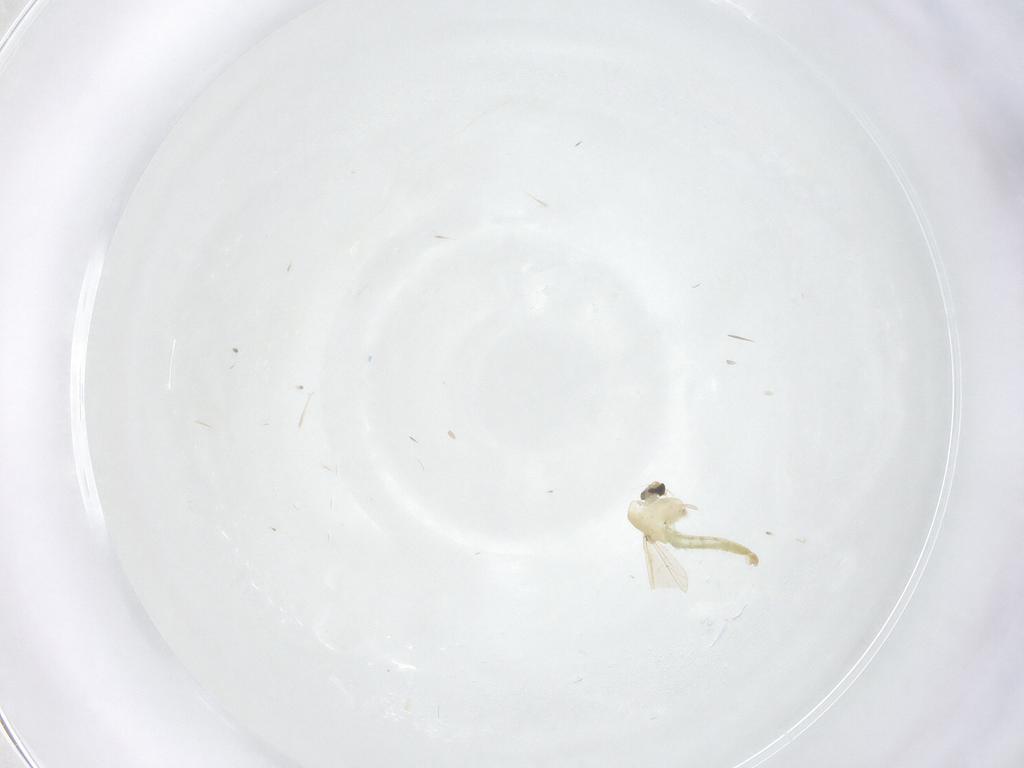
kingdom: Animalia
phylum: Arthropoda
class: Insecta
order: Diptera
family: Chironomidae
